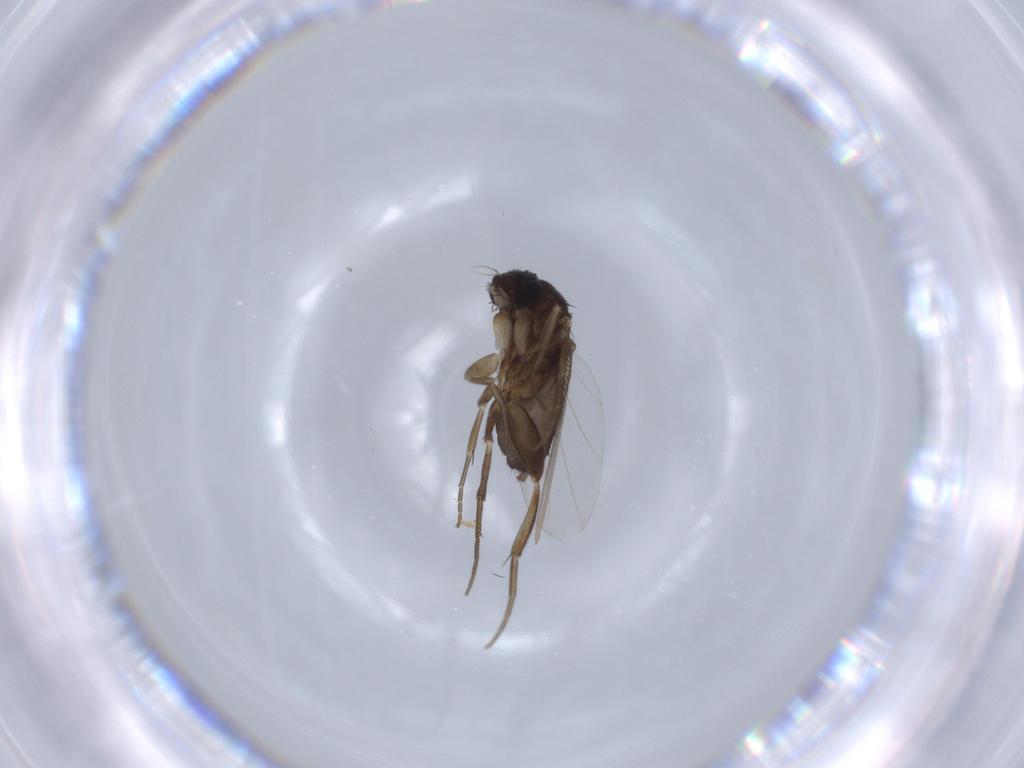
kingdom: Animalia
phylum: Arthropoda
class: Insecta
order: Diptera
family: Phoridae
